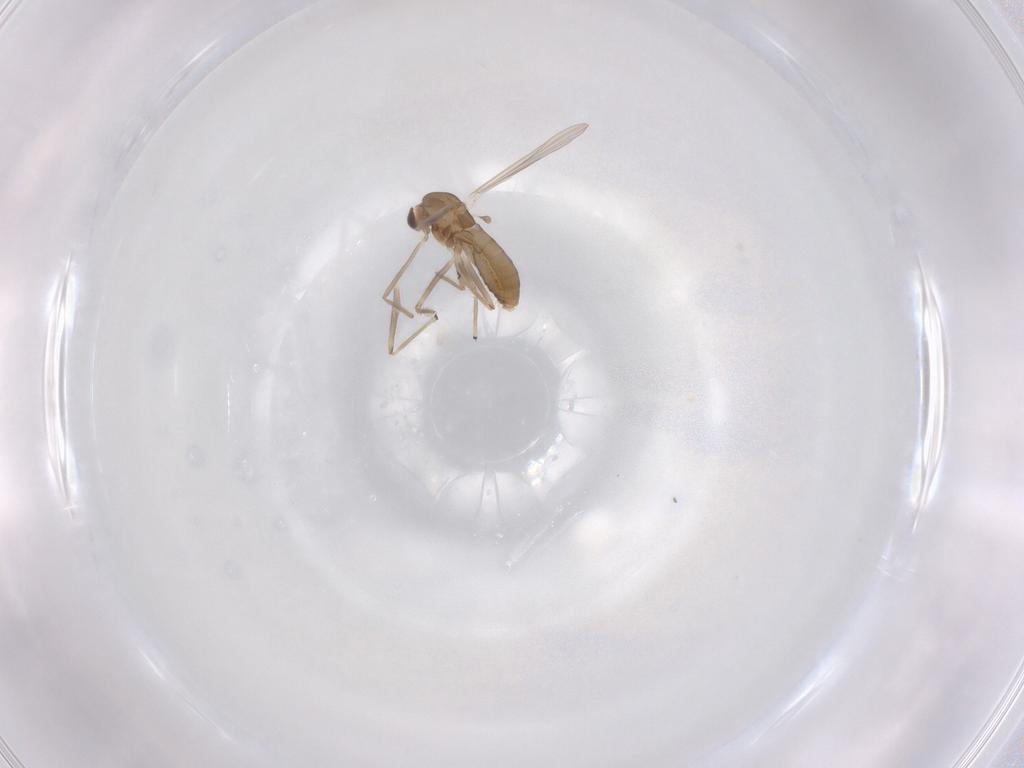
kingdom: Animalia
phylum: Arthropoda
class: Insecta
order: Diptera
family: Chironomidae
